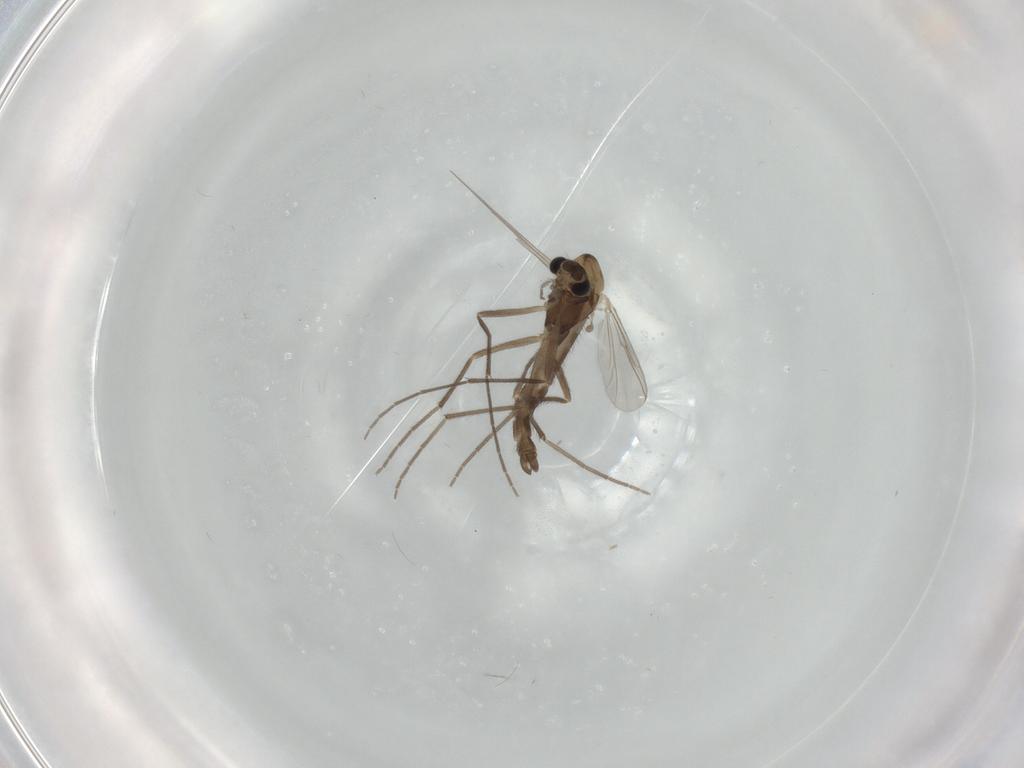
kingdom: Animalia
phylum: Arthropoda
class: Insecta
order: Diptera
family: Chironomidae
